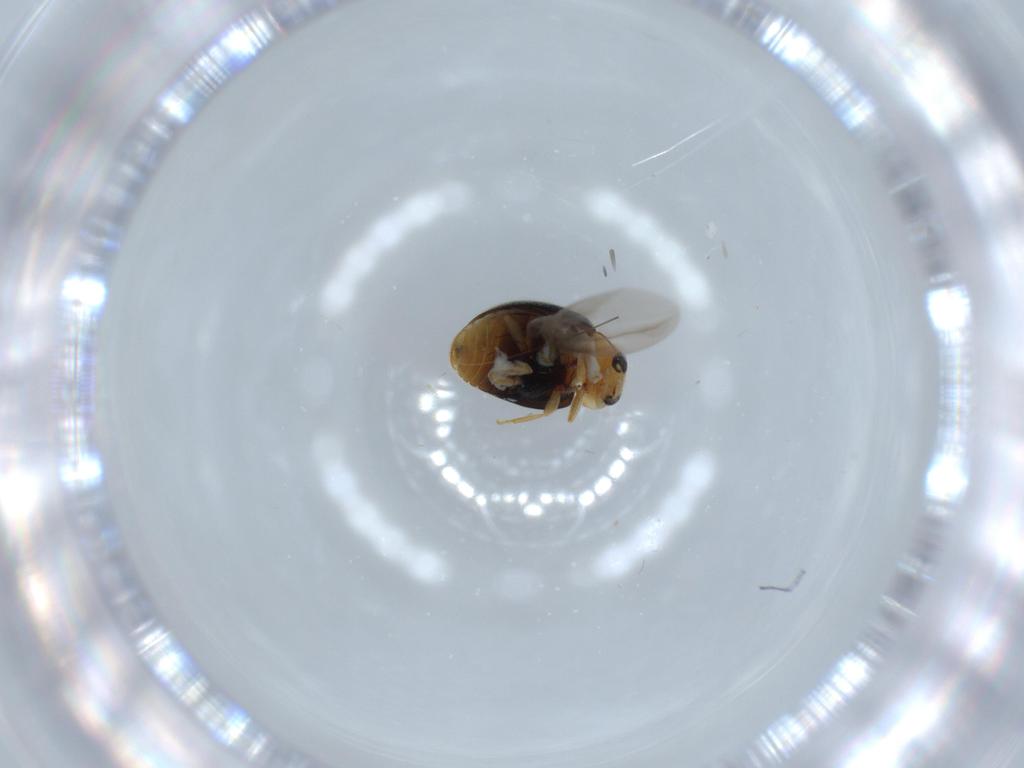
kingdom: Animalia
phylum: Arthropoda
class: Insecta
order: Coleoptera
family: Coccinellidae
